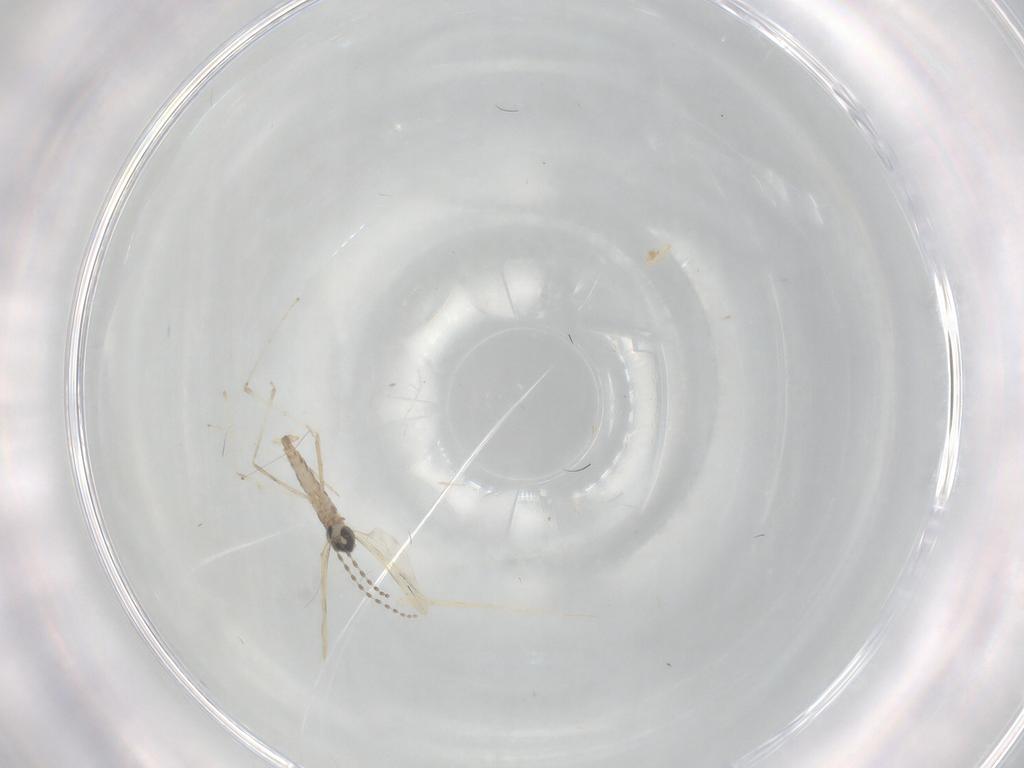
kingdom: Animalia
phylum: Arthropoda
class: Insecta
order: Diptera
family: Cecidomyiidae
